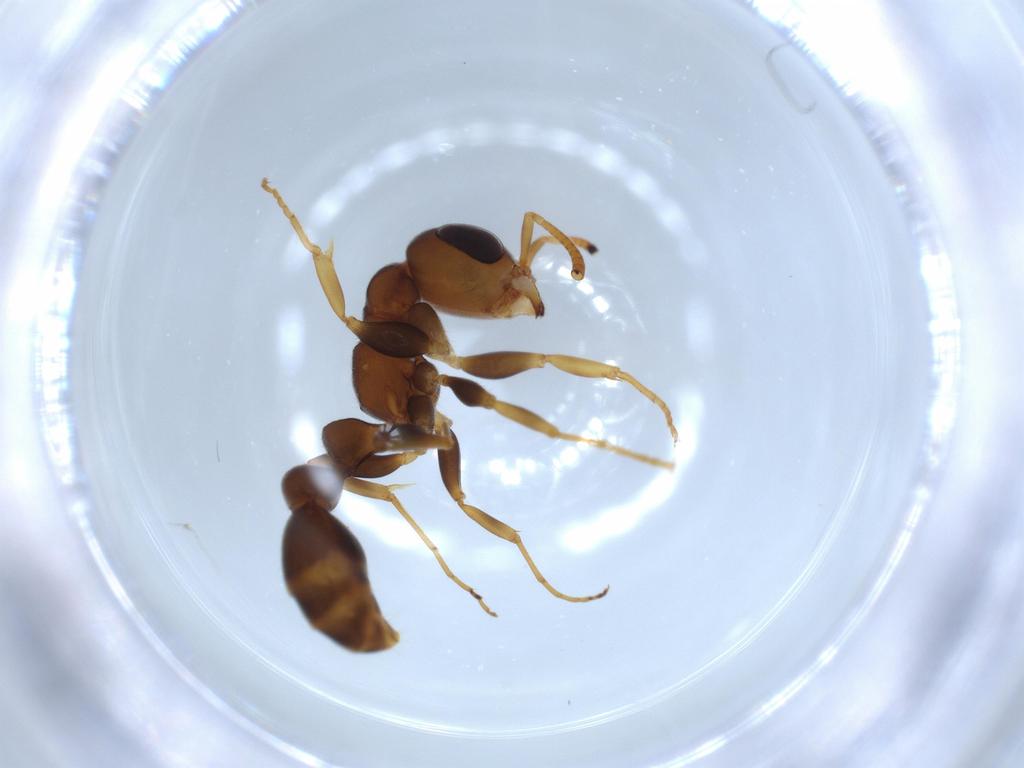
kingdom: Animalia
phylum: Arthropoda
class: Insecta
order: Hymenoptera
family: Formicidae
